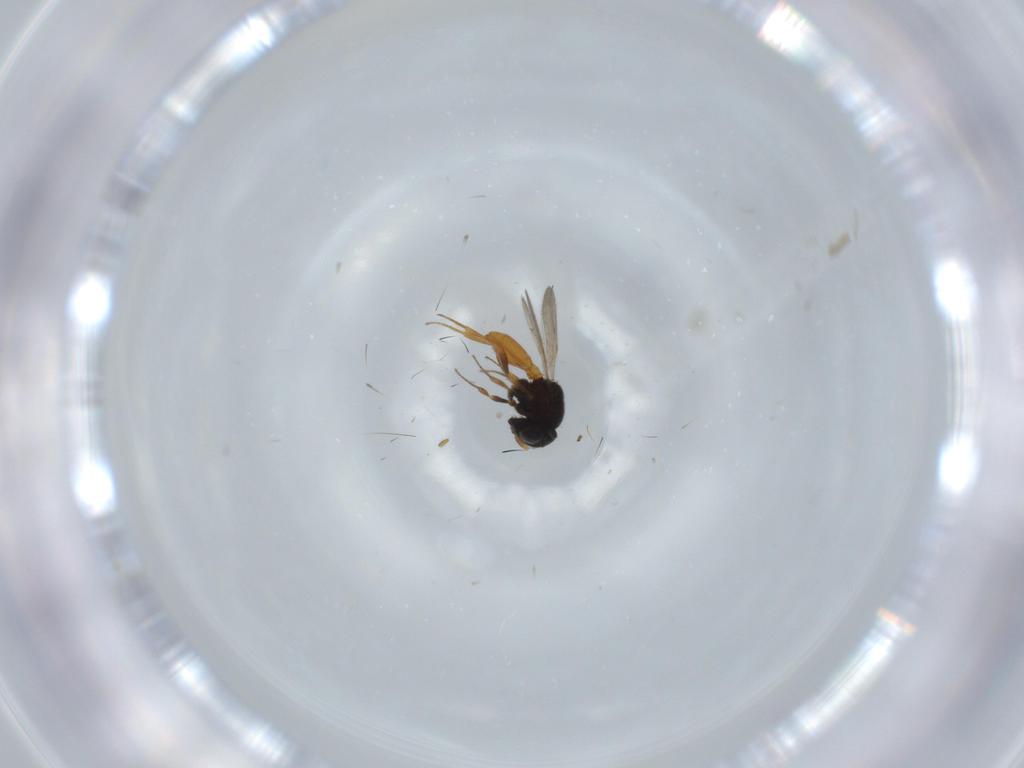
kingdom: Animalia
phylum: Arthropoda
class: Insecta
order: Hymenoptera
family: Scelionidae
